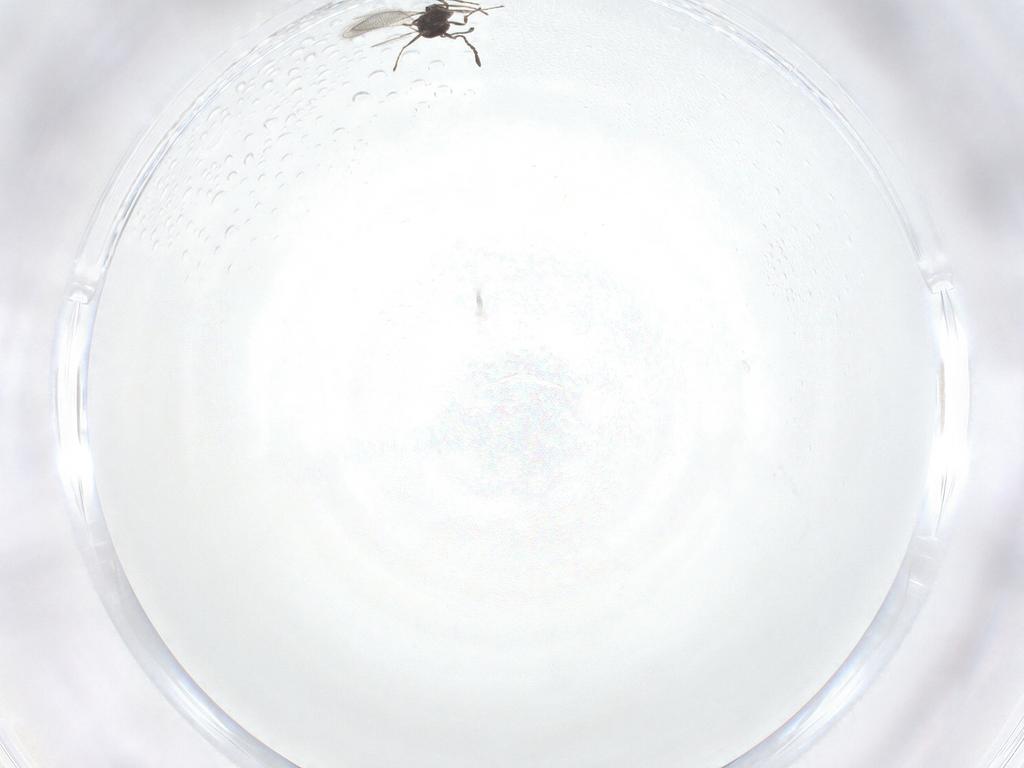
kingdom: Animalia
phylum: Arthropoda
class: Insecta
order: Hymenoptera
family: Mymaridae
